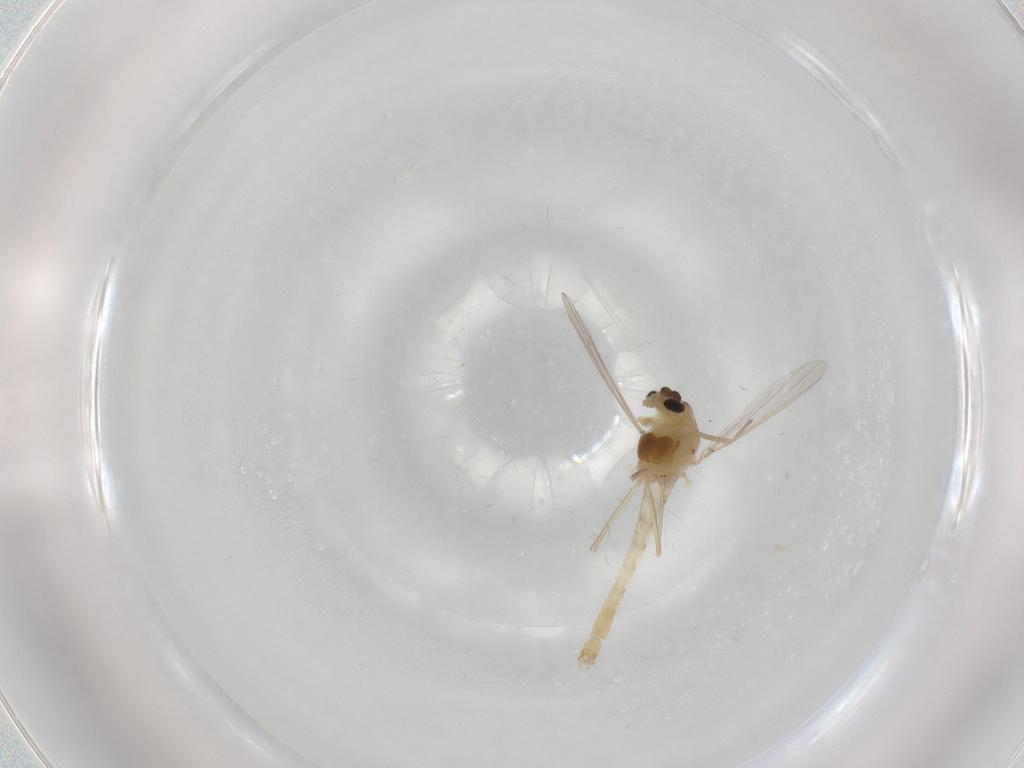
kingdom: Animalia
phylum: Arthropoda
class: Insecta
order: Diptera
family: Chironomidae
